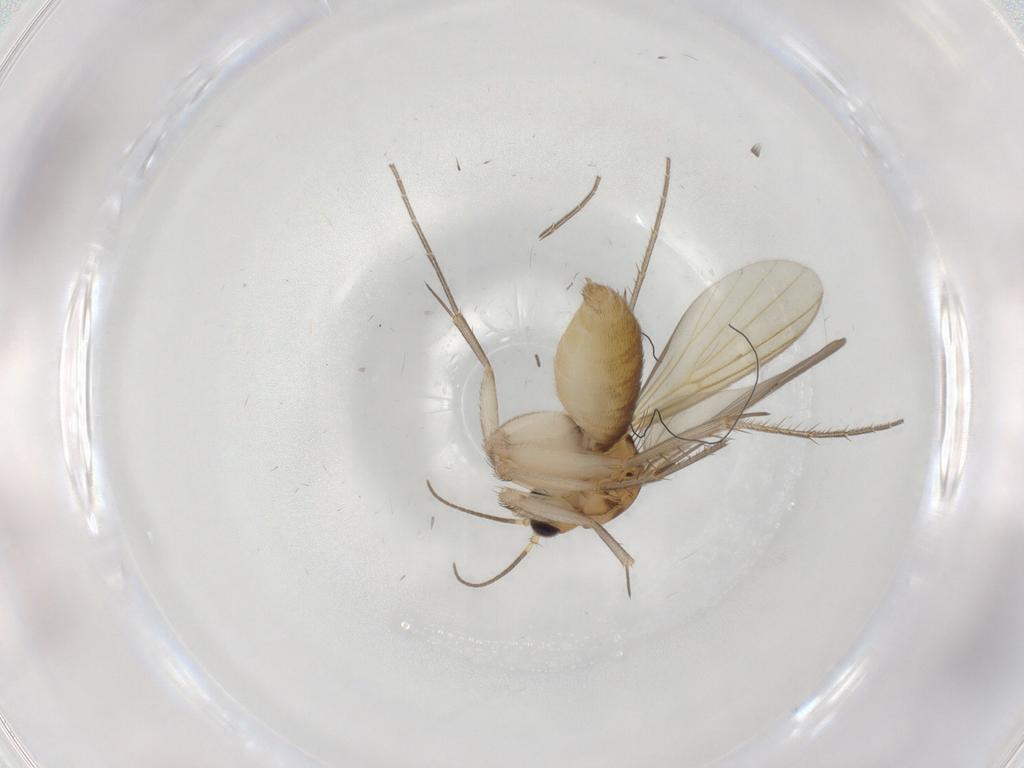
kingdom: Animalia
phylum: Arthropoda
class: Insecta
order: Diptera
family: Mycetophilidae
